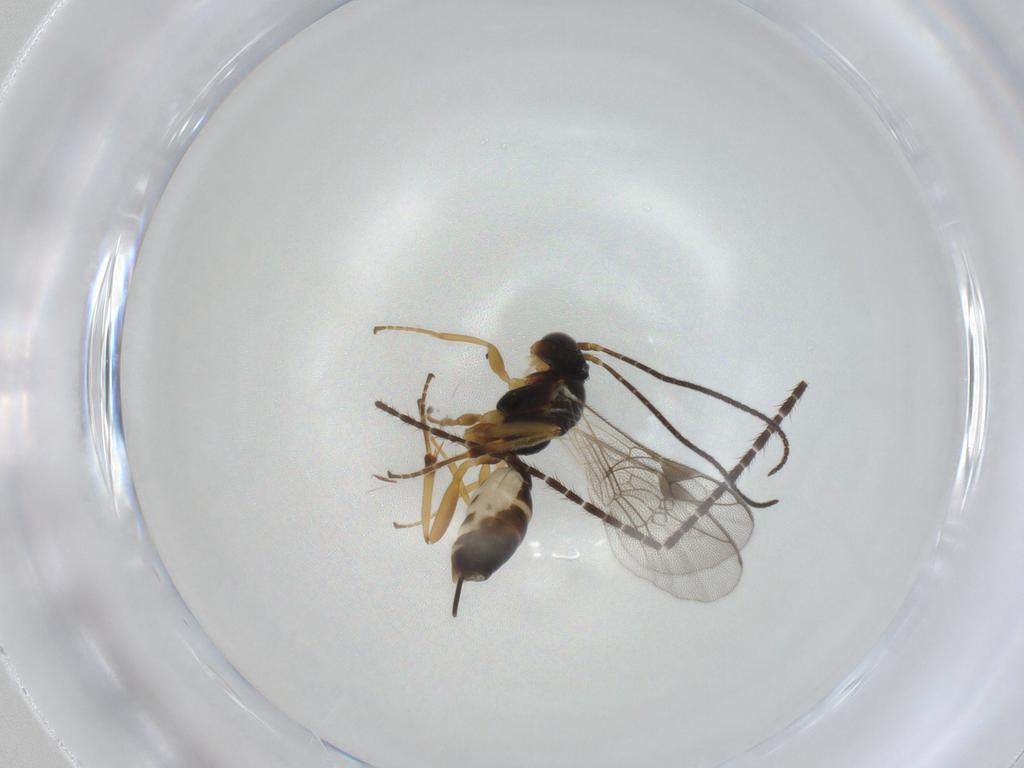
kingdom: Animalia
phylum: Arthropoda
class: Insecta
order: Hymenoptera
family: Ichneumonidae
